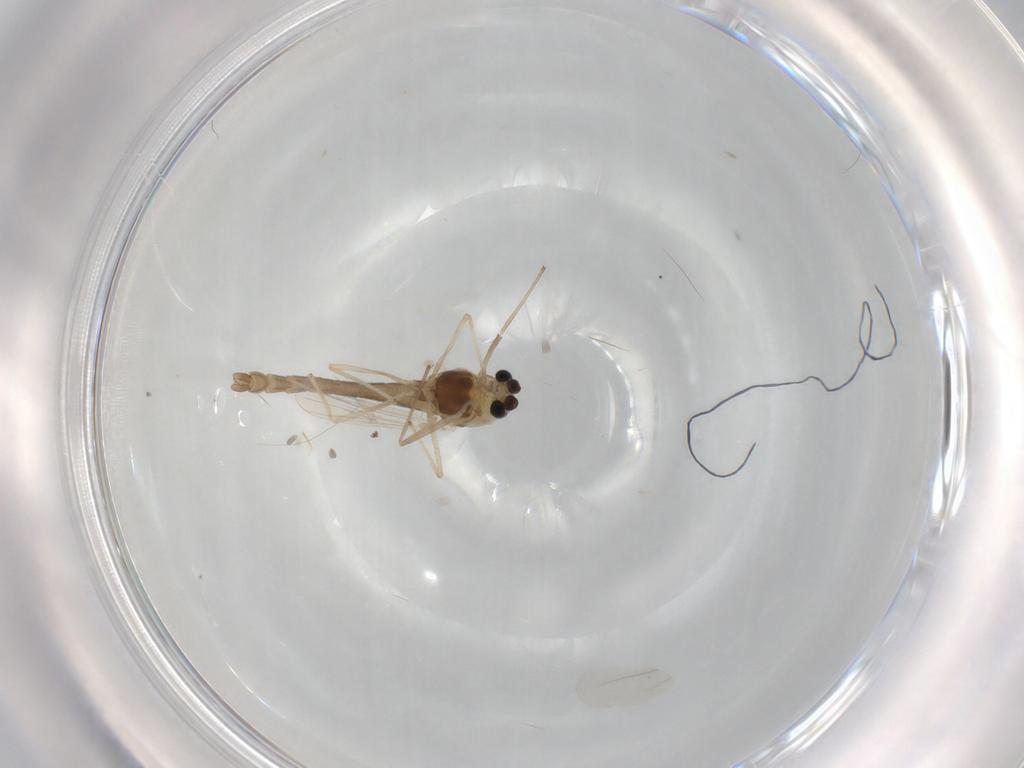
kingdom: Animalia
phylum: Arthropoda
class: Insecta
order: Diptera
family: Chironomidae
